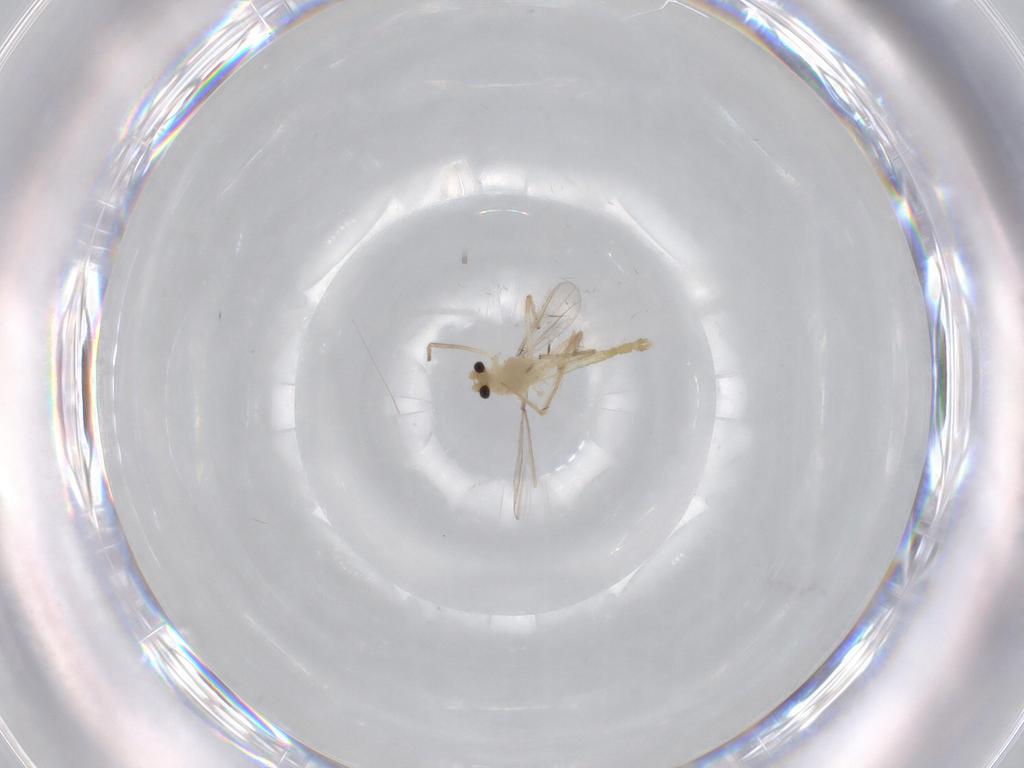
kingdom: Animalia
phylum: Arthropoda
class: Insecta
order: Diptera
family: Chironomidae
